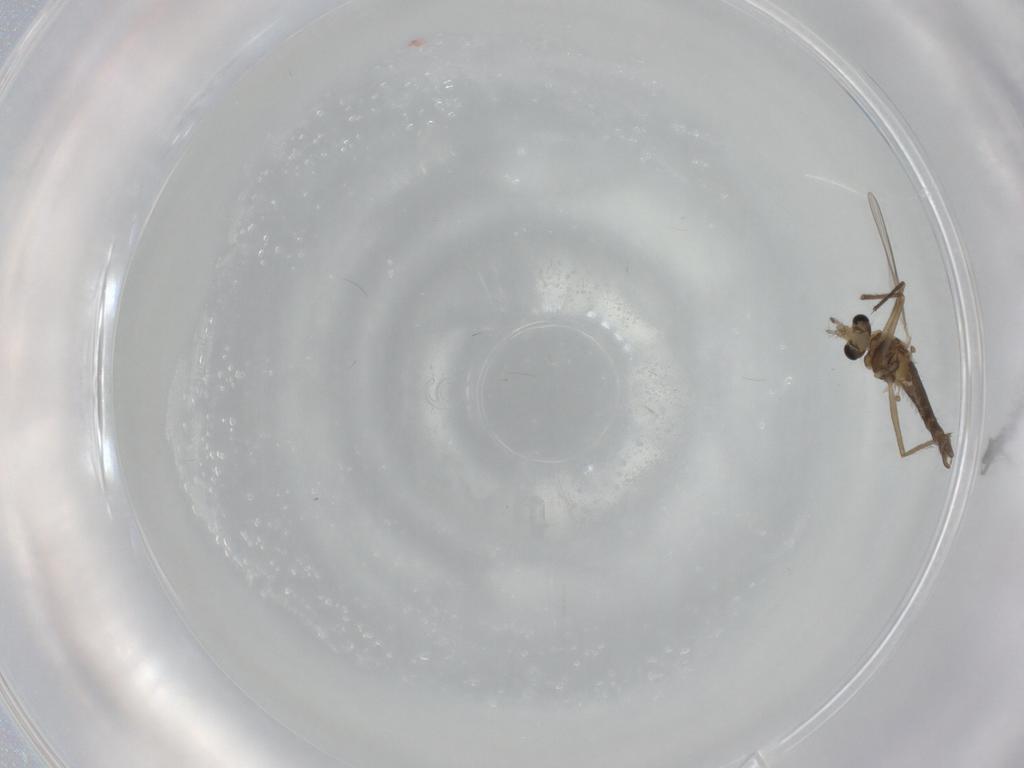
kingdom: Animalia
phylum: Arthropoda
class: Insecta
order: Diptera
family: Chironomidae
